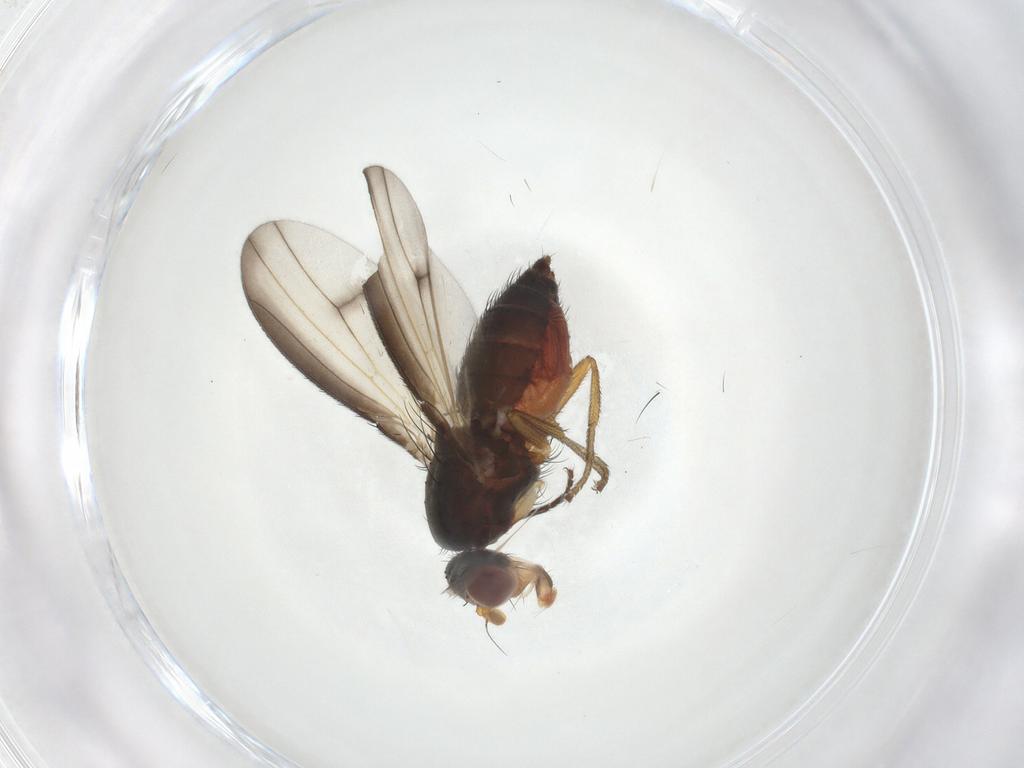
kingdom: Animalia
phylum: Arthropoda
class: Insecta
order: Diptera
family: Heleomyzidae
